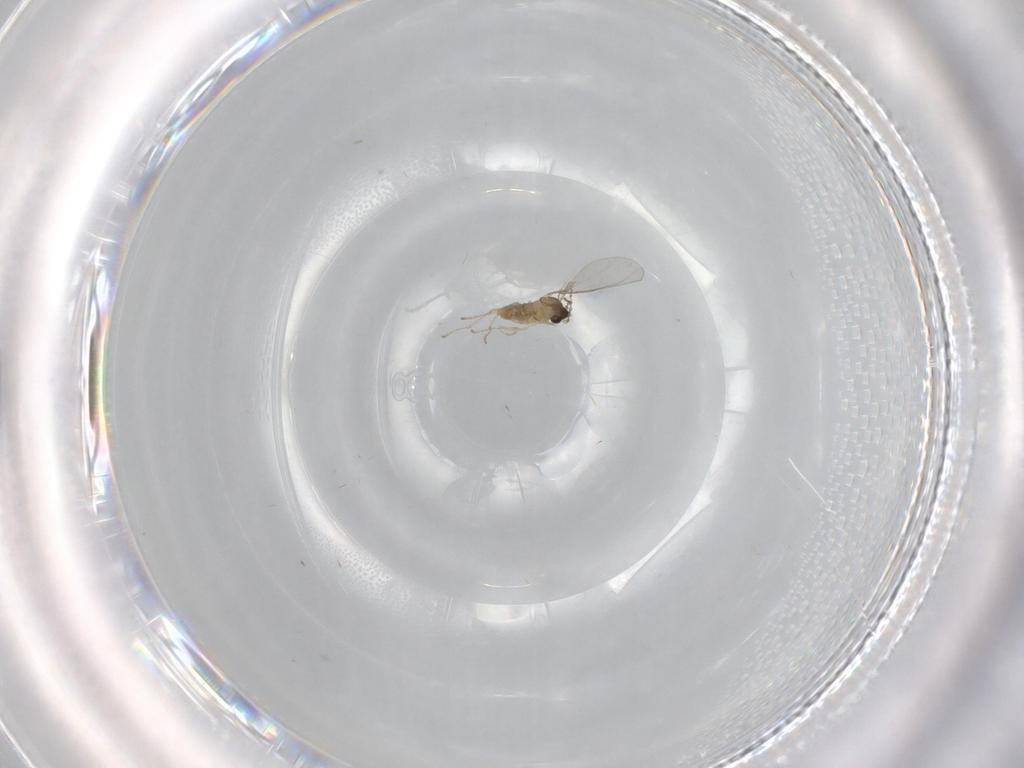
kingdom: Animalia
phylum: Arthropoda
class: Insecta
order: Diptera
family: Cecidomyiidae
